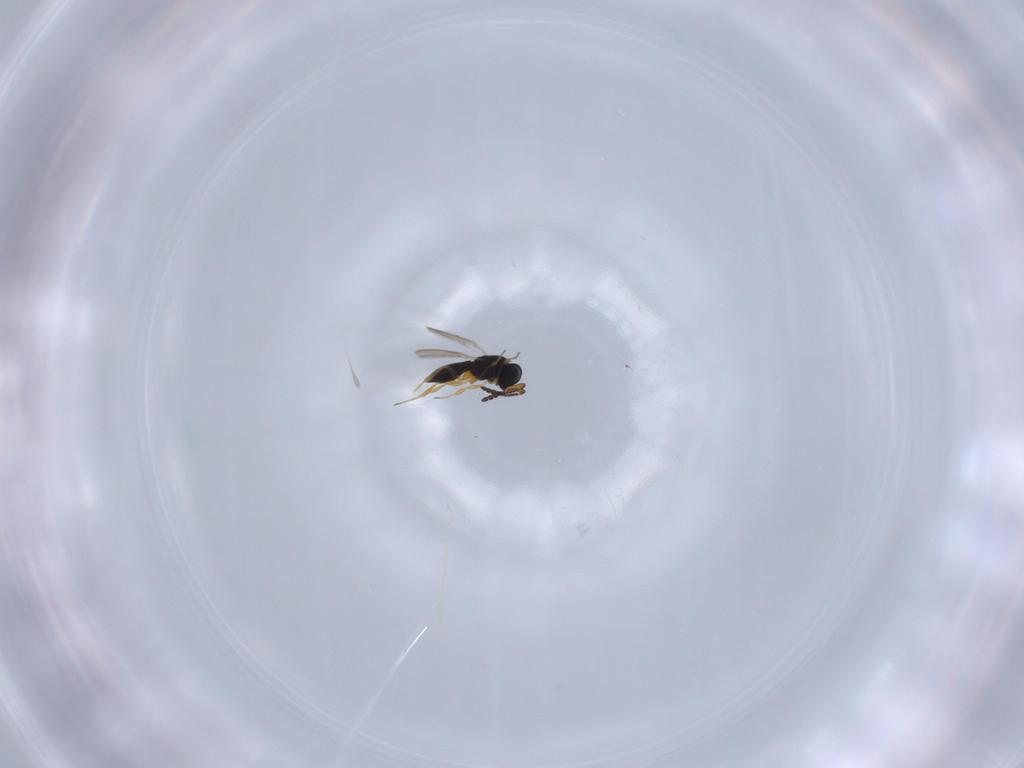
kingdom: Animalia
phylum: Arthropoda
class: Insecta
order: Hymenoptera
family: Scelionidae
